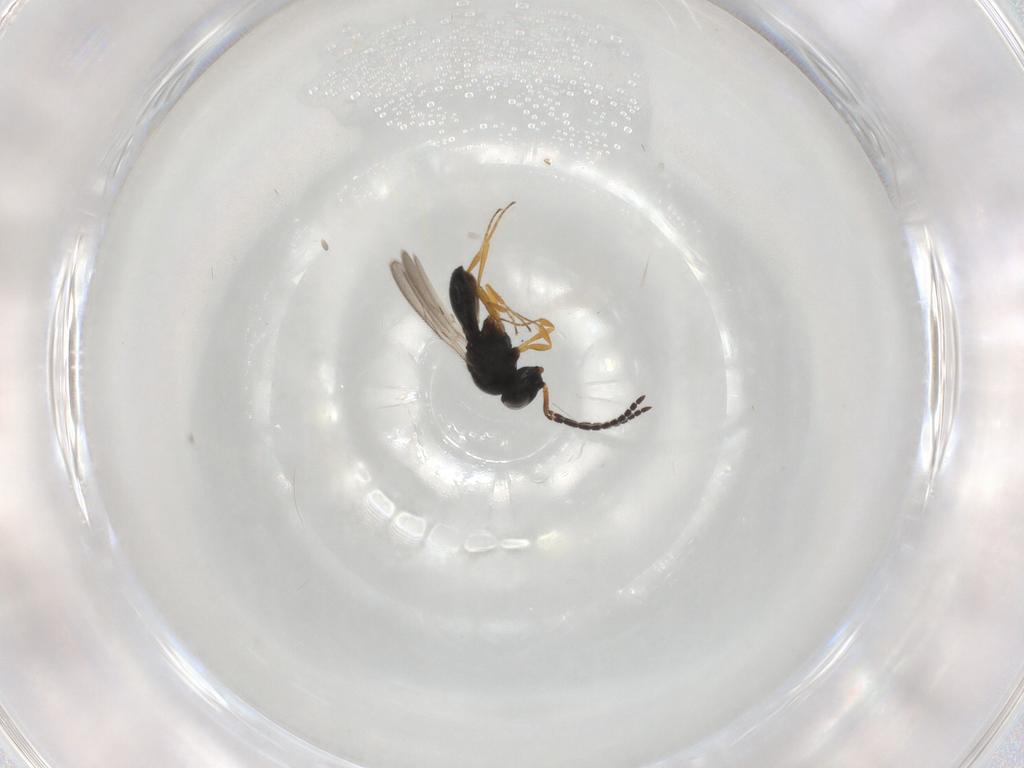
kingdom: Animalia
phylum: Arthropoda
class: Insecta
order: Hymenoptera
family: Scelionidae
